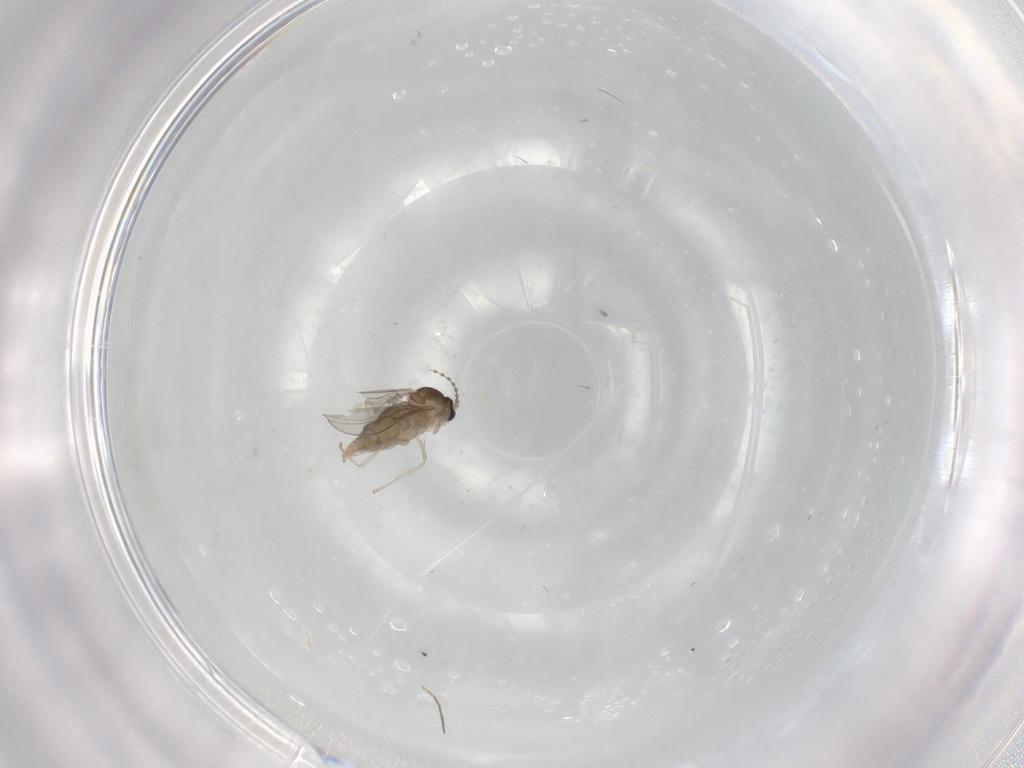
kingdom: Animalia
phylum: Arthropoda
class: Insecta
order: Diptera
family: Cecidomyiidae
